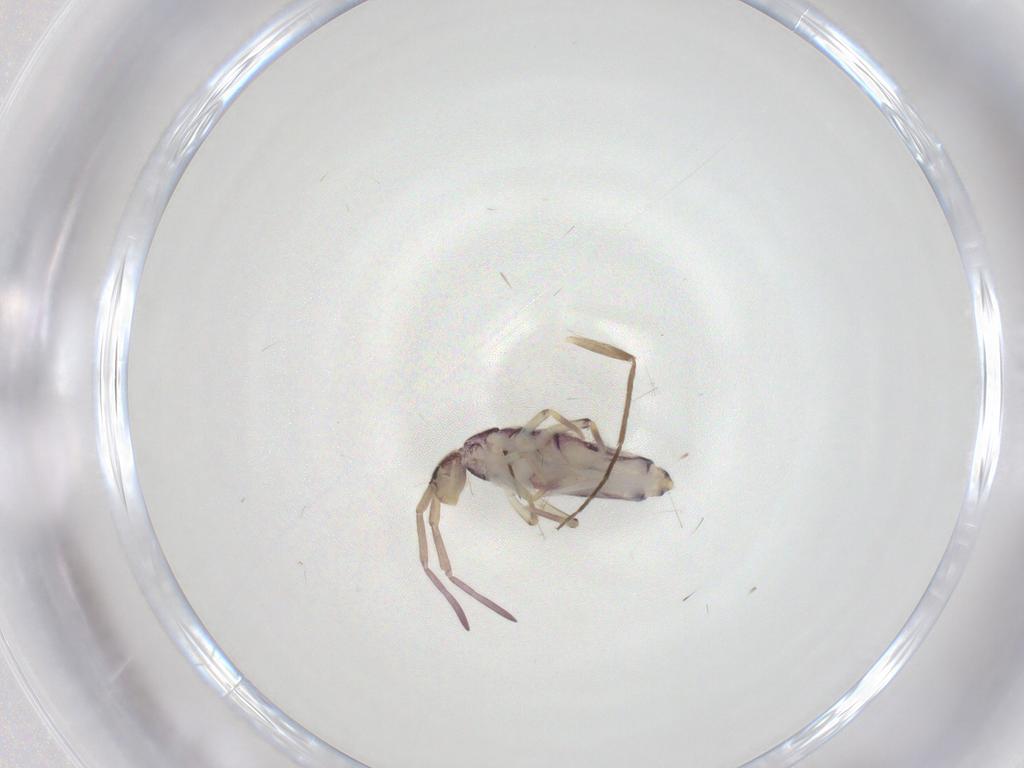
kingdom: Animalia
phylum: Arthropoda
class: Collembola
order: Entomobryomorpha
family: Entomobryidae
